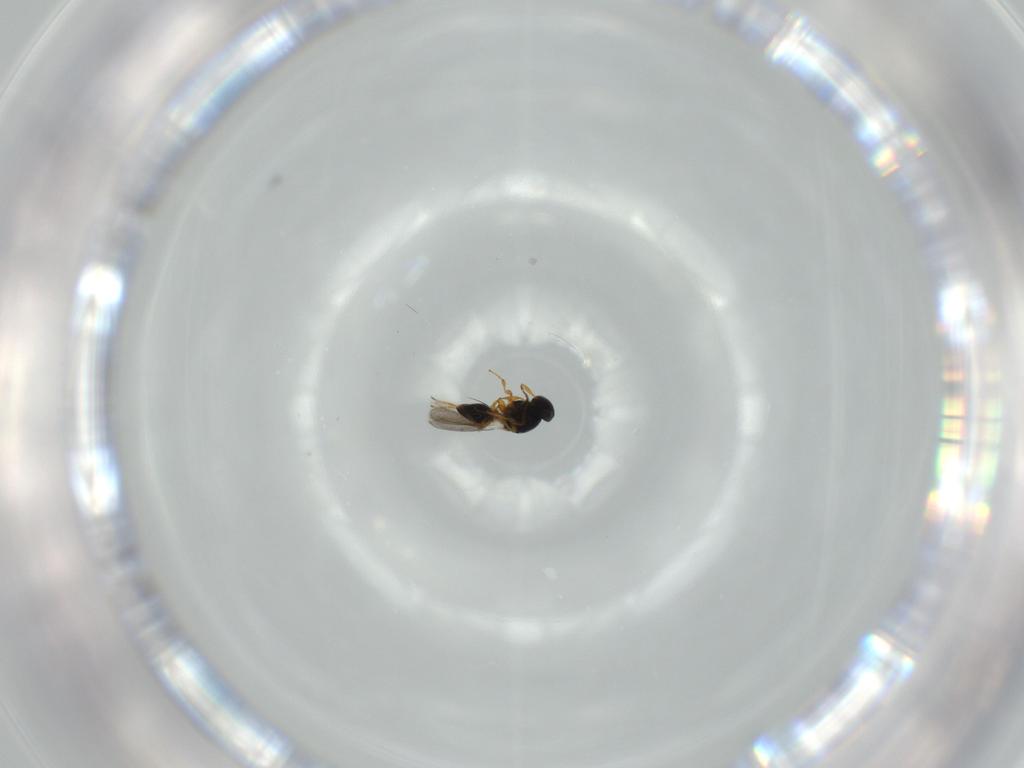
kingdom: Animalia
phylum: Arthropoda
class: Insecta
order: Hymenoptera
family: Platygastridae
